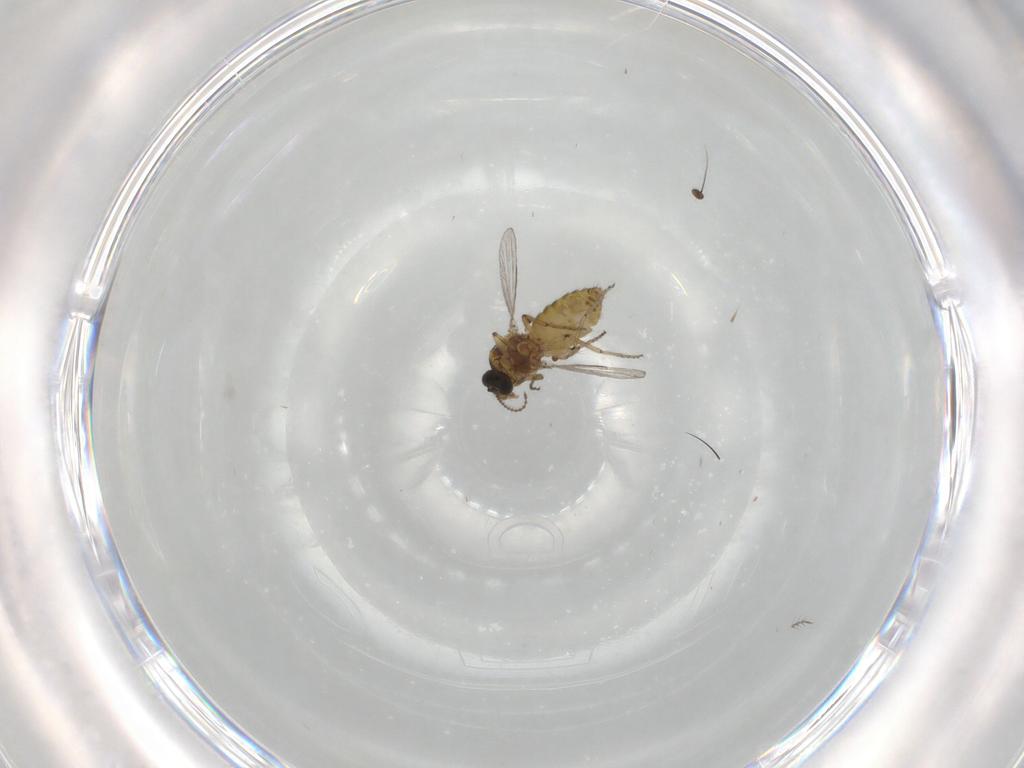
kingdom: Animalia
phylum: Arthropoda
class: Insecta
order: Diptera
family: Ceratopogonidae
